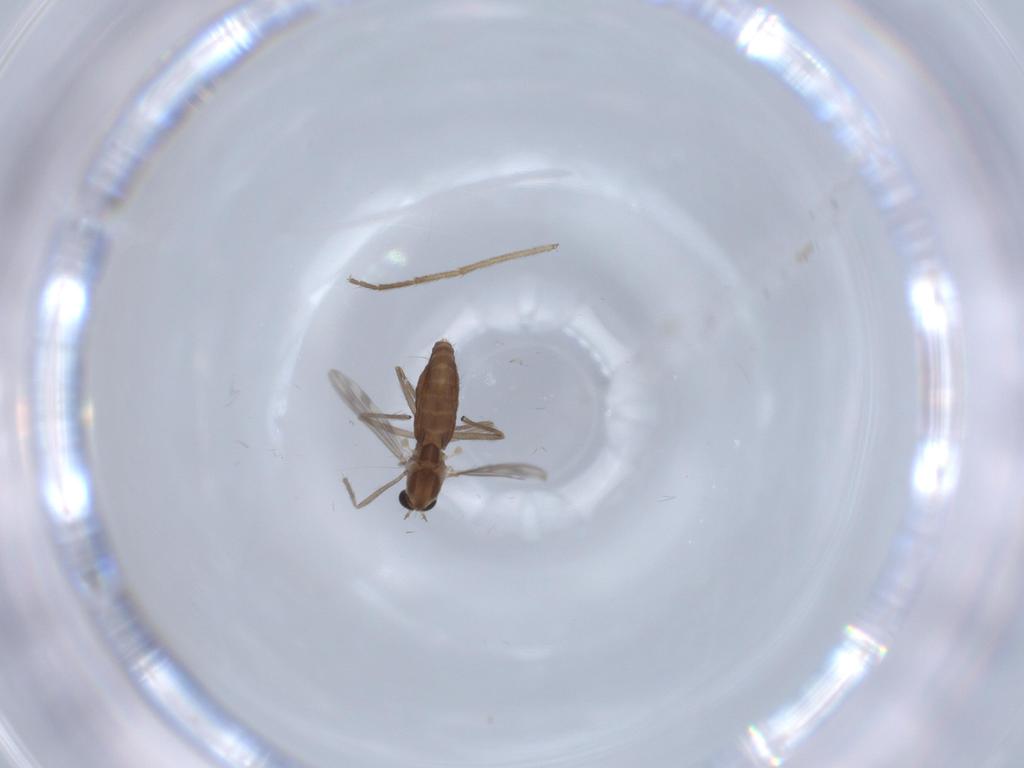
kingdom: Animalia
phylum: Arthropoda
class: Insecta
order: Diptera
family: Chironomidae
